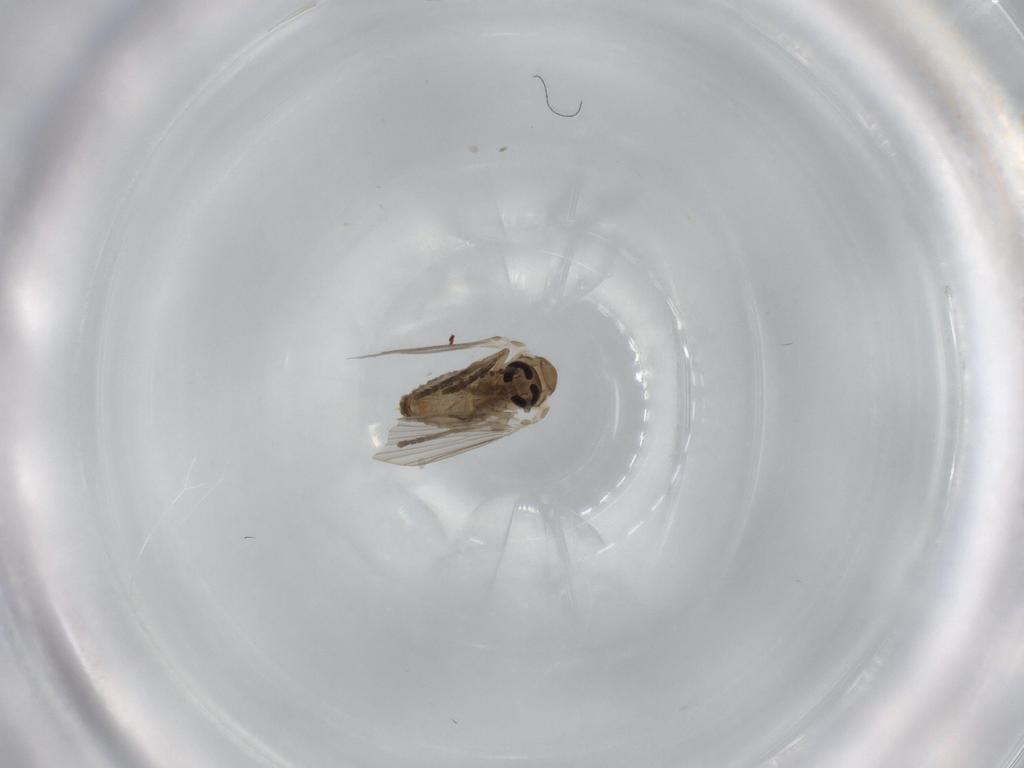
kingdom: Animalia
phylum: Arthropoda
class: Insecta
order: Diptera
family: Psychodidae
